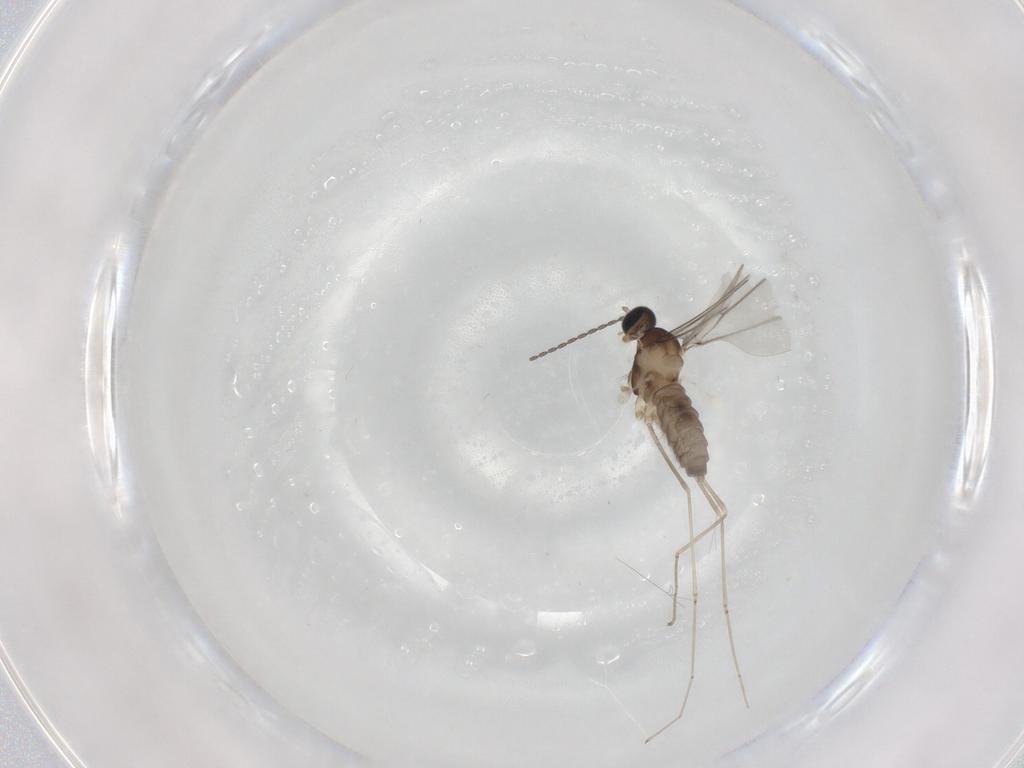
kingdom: Animalia
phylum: Arthropoda
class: Insecta
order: Diptera
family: Cecidomyiidae
